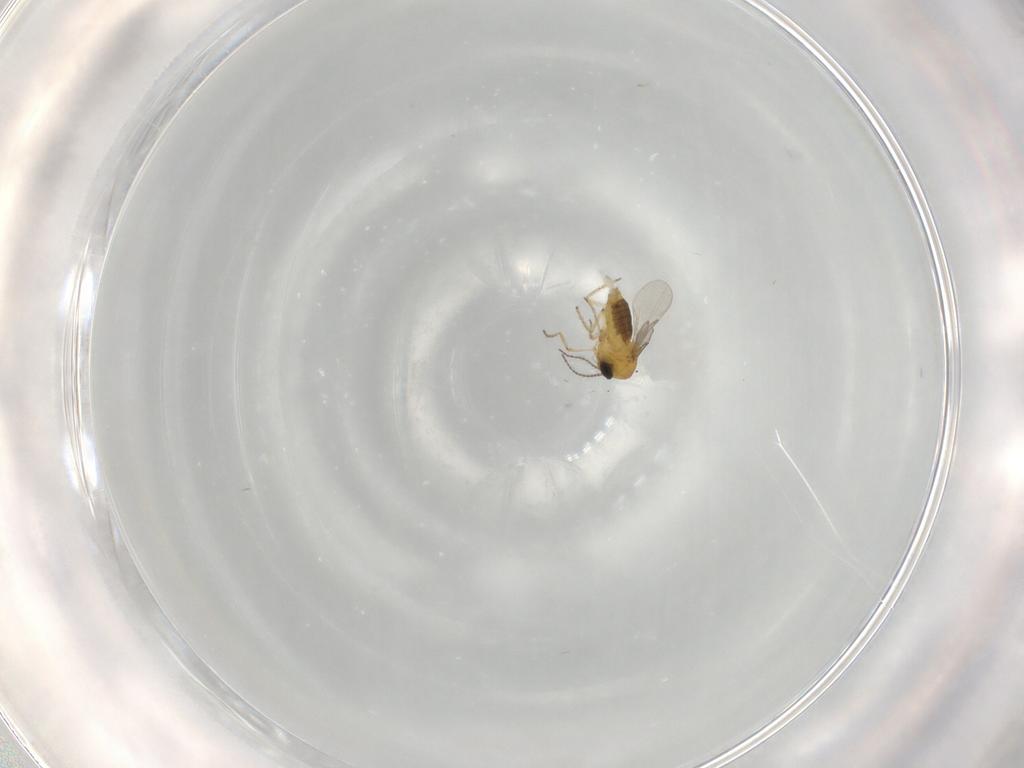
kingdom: Animalia
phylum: Arthropoda
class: Insecta
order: Diptera
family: Ceratopogonidae
